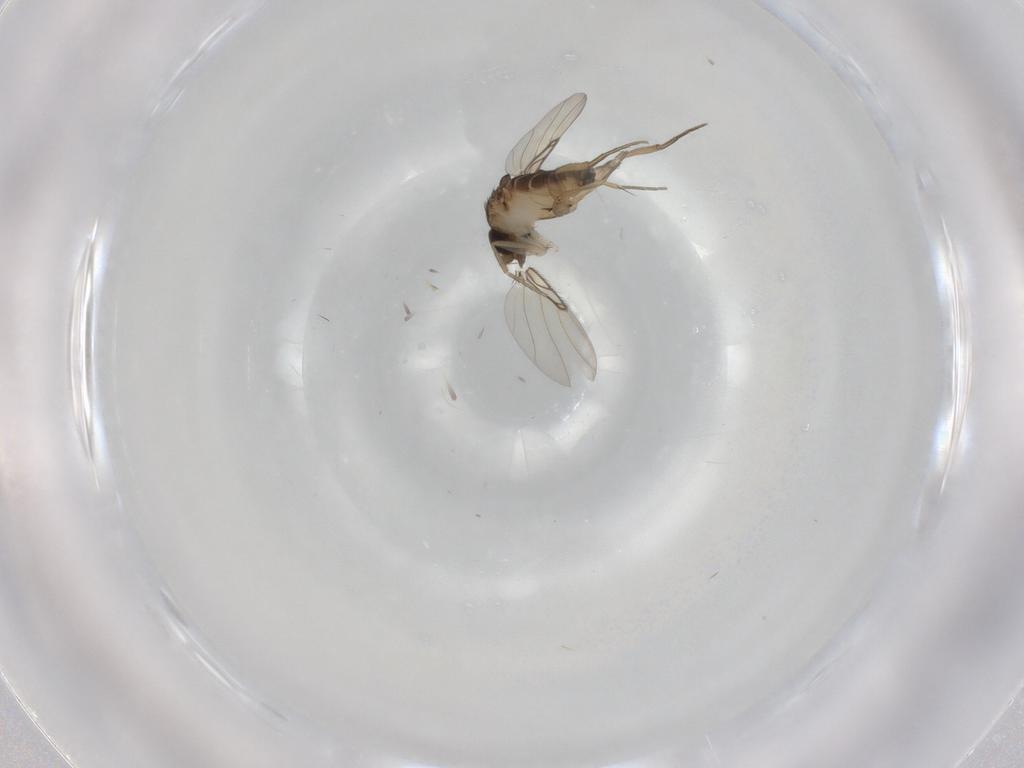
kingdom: Animalia
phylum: Arthropoda
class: Insecta
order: Diptera
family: Phoridae
